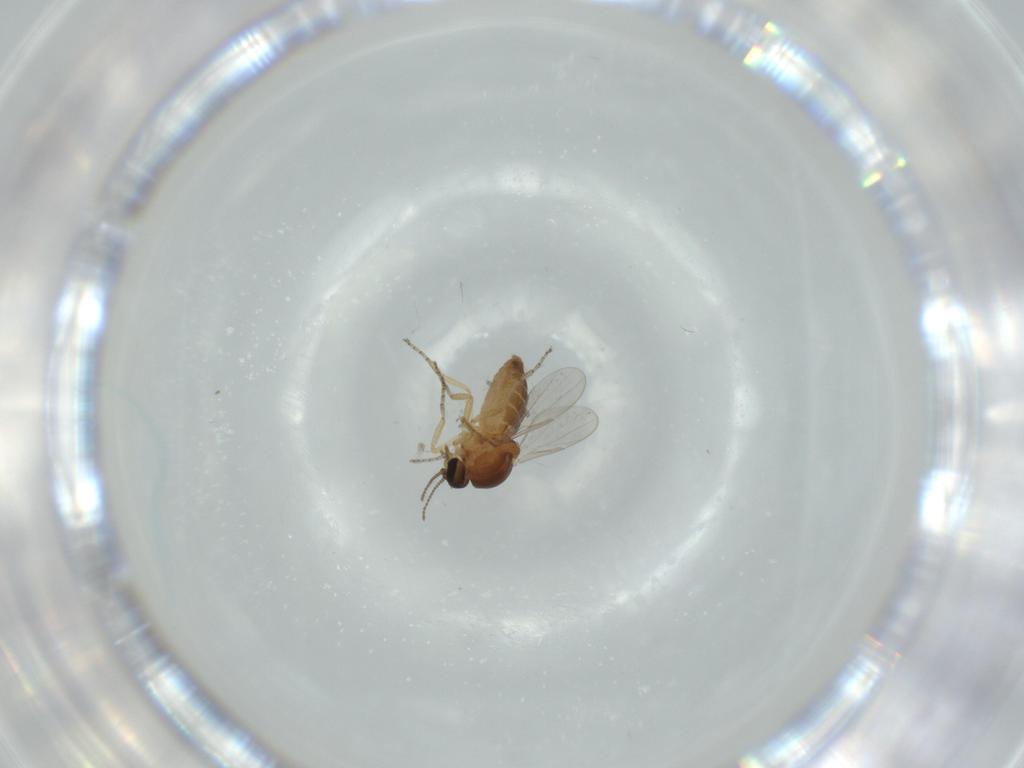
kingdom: Animalia
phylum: Arthropoda
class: Insecta
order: Diptera
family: Ceratopogonidae
